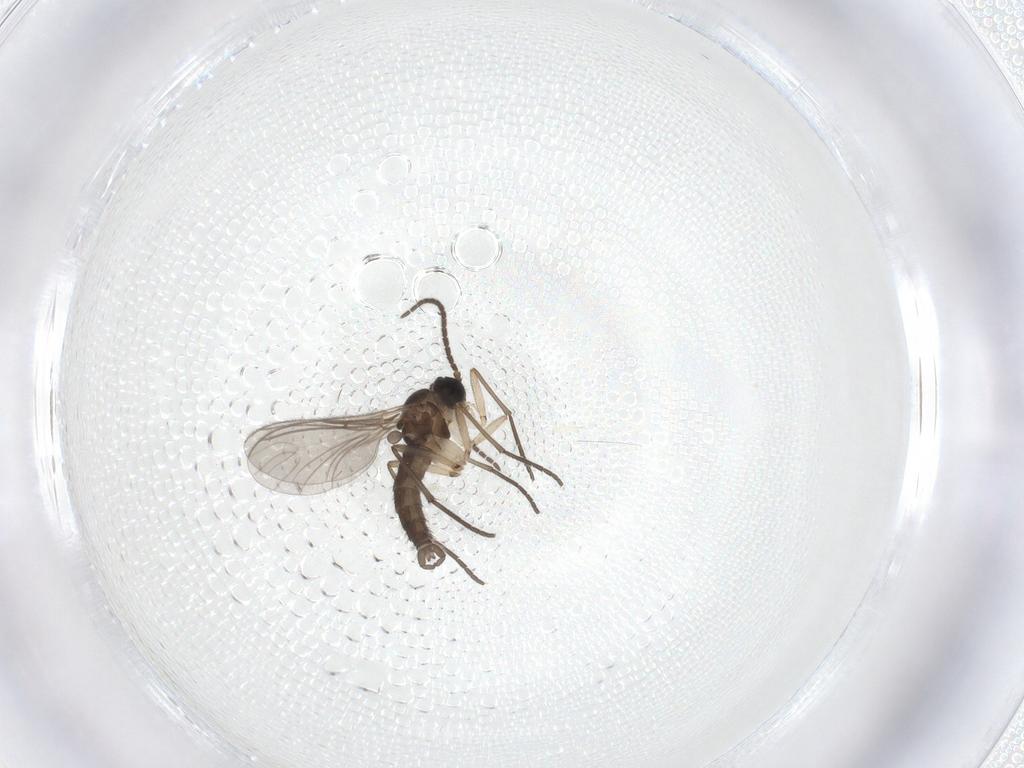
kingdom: Animalia
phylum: Arthropoda
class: Insecta
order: Diptera
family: Sciaridae
